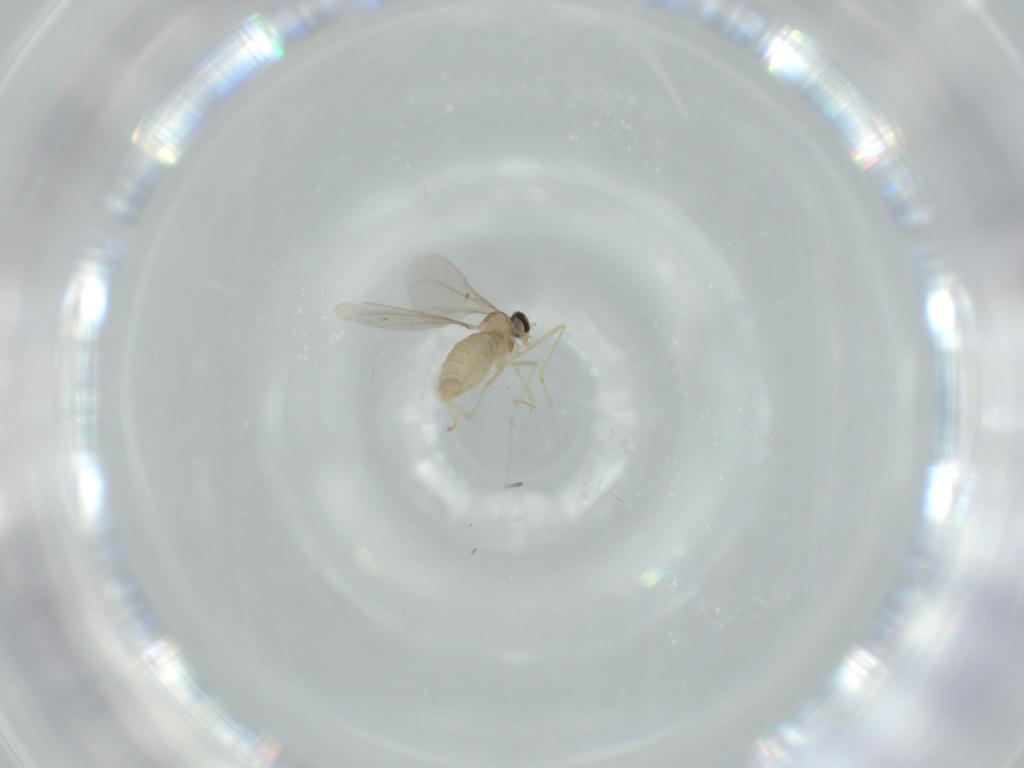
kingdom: Animalia
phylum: Arthropoda
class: Insecta
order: Diptera
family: Cecidomyiidae
